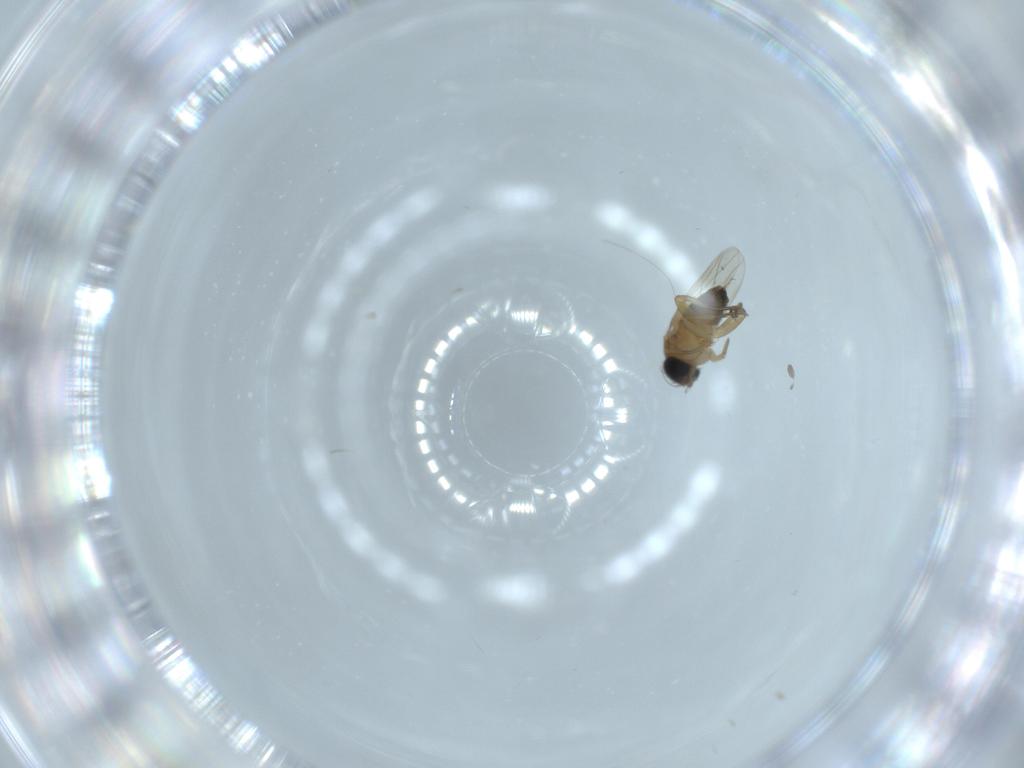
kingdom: Animalia
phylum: Arthropoda
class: Insecta
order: Diptera
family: Phoridae
